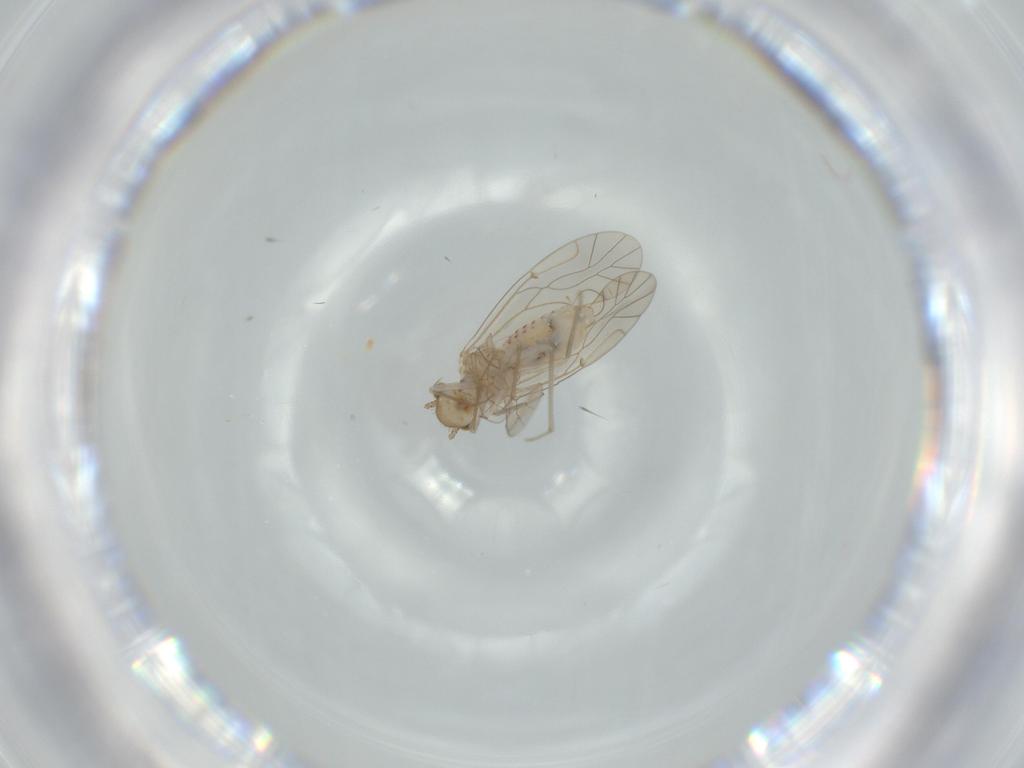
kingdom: Animalia
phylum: Arthropoda
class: Insecta
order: Psocodea
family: Lachesillidae
